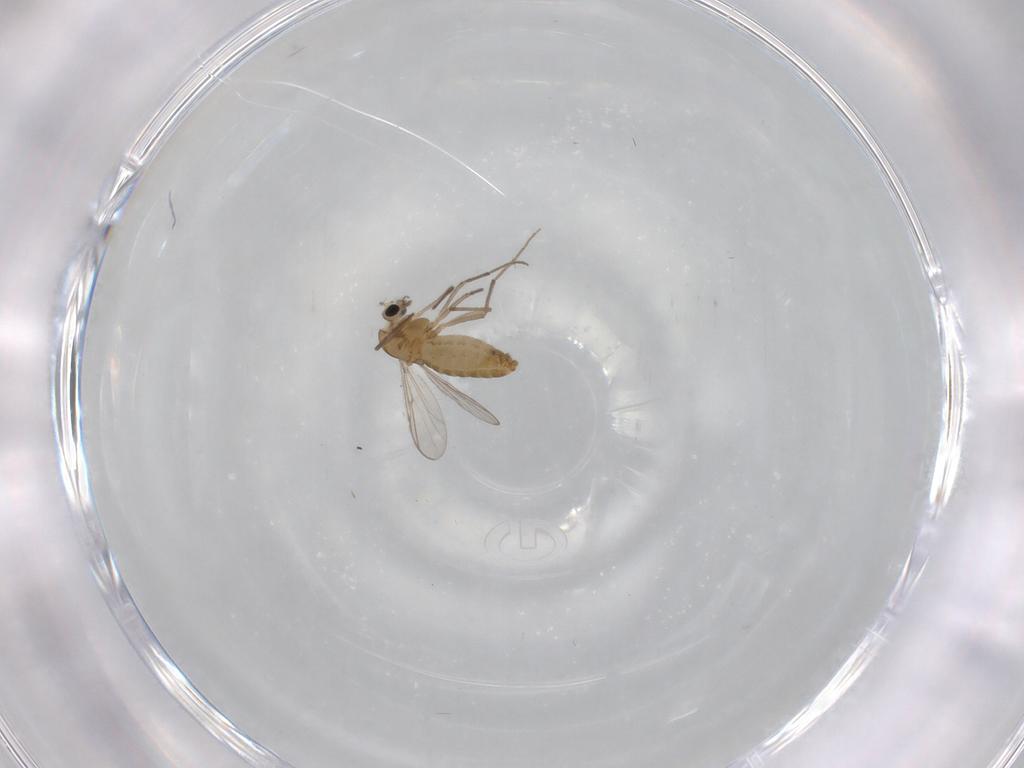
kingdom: Animalia
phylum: Arthropoda
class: Insecta
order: Diptera
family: Chironomidae
